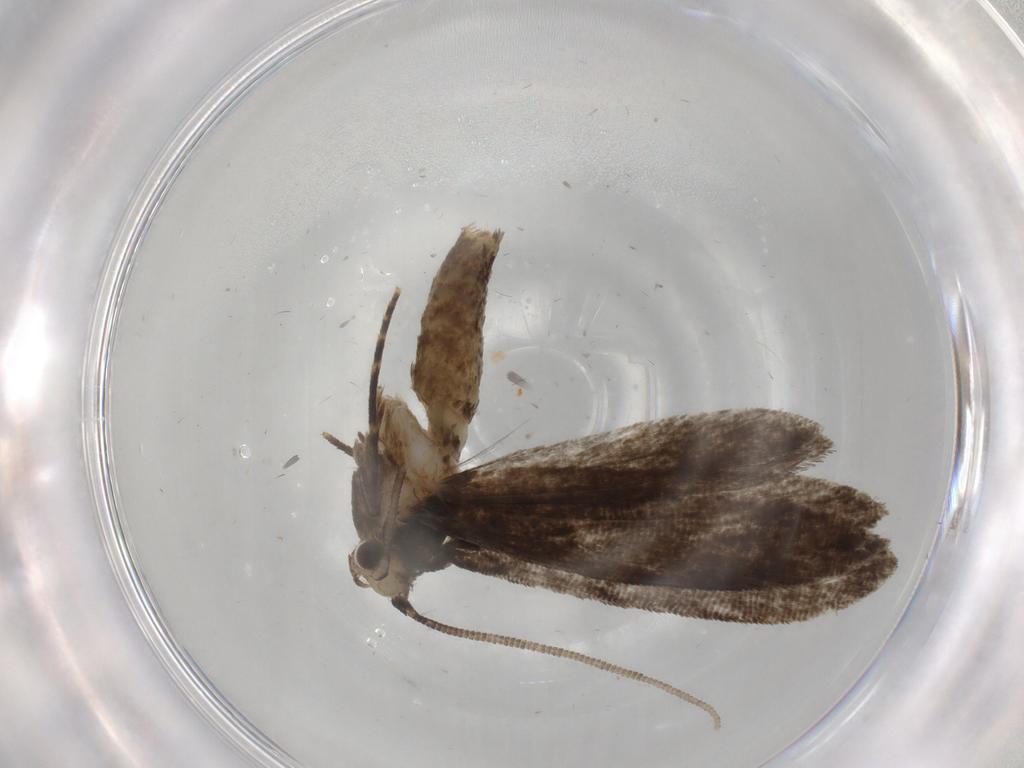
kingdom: Animalia
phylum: Arthropoda
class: Insecta
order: Lepidoptera
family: Tineidae
